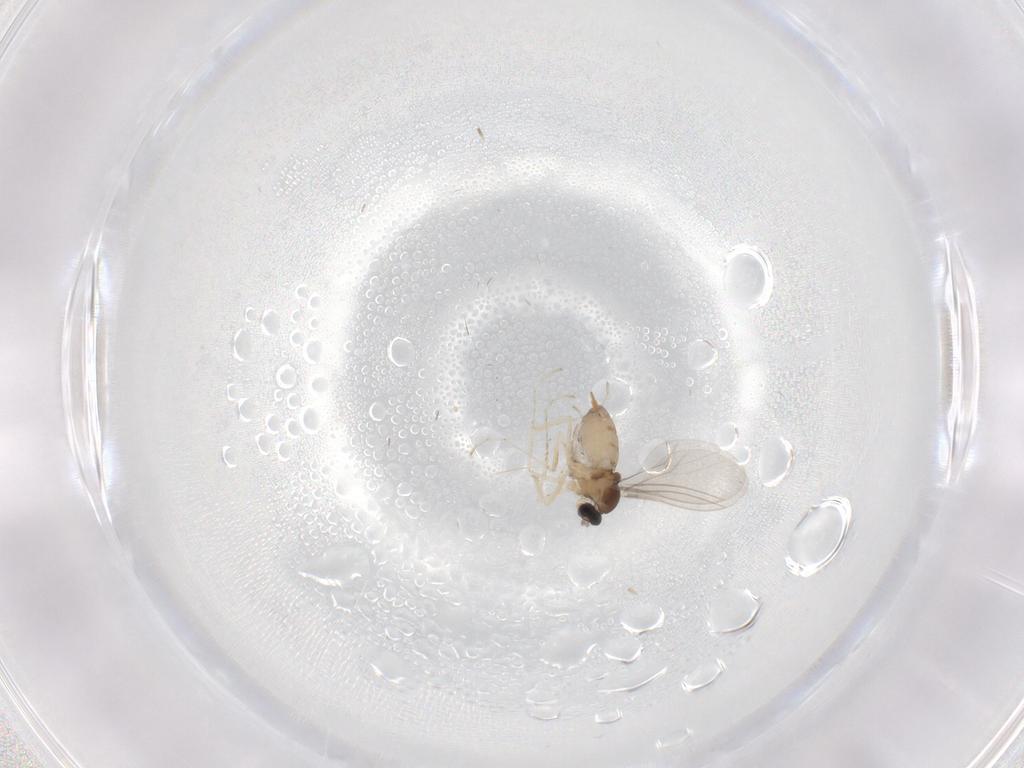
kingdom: Animalia
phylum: Arthropoda
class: Insecta
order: Diptera
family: Cecidomyiidae
